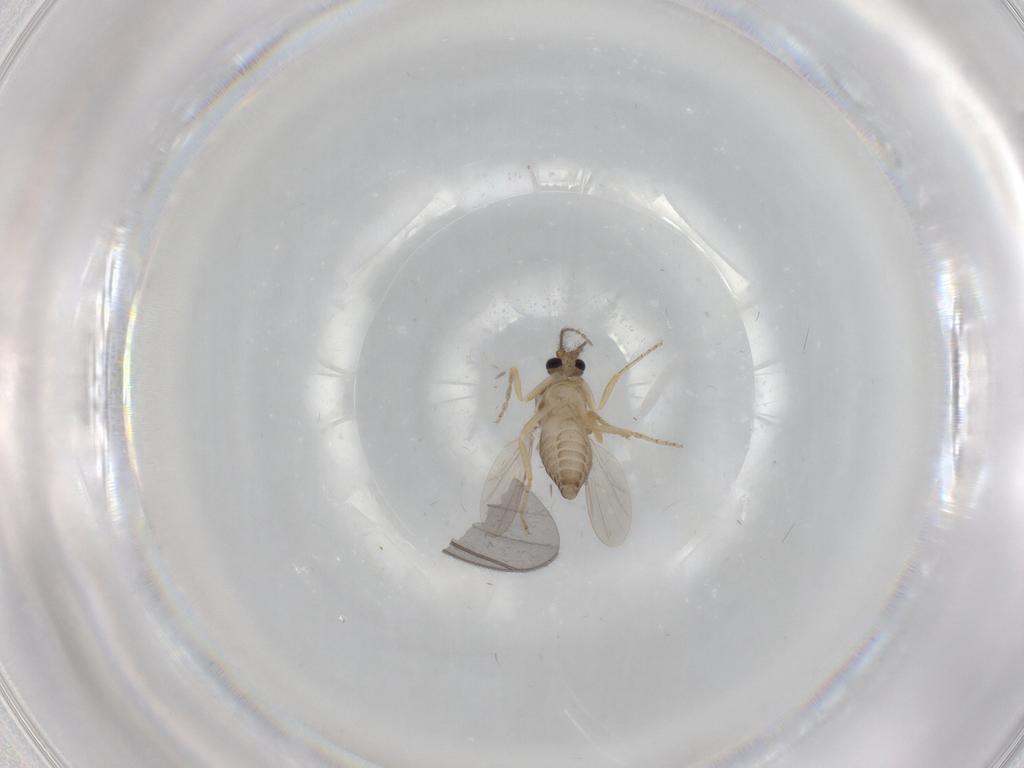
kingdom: Animalia
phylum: Arthropoda
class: Insecta
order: Diptera
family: Ceratopogonidae
